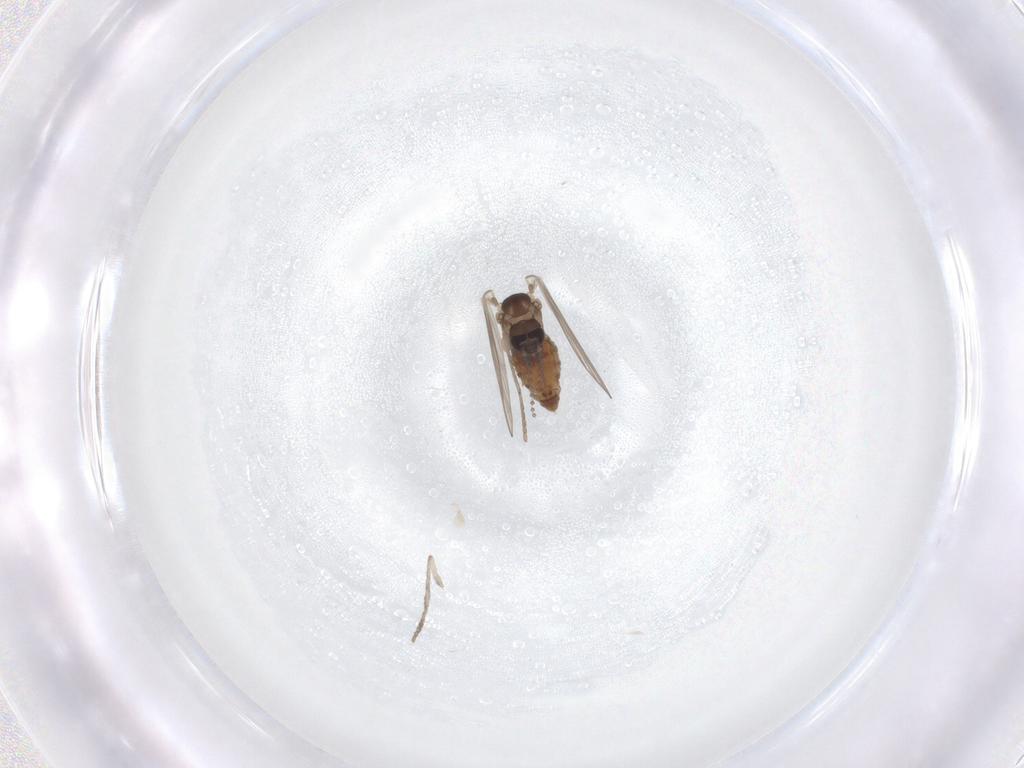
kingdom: Animalia
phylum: Arthropoda
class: Insecta
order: Diptera
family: Psychodidae
